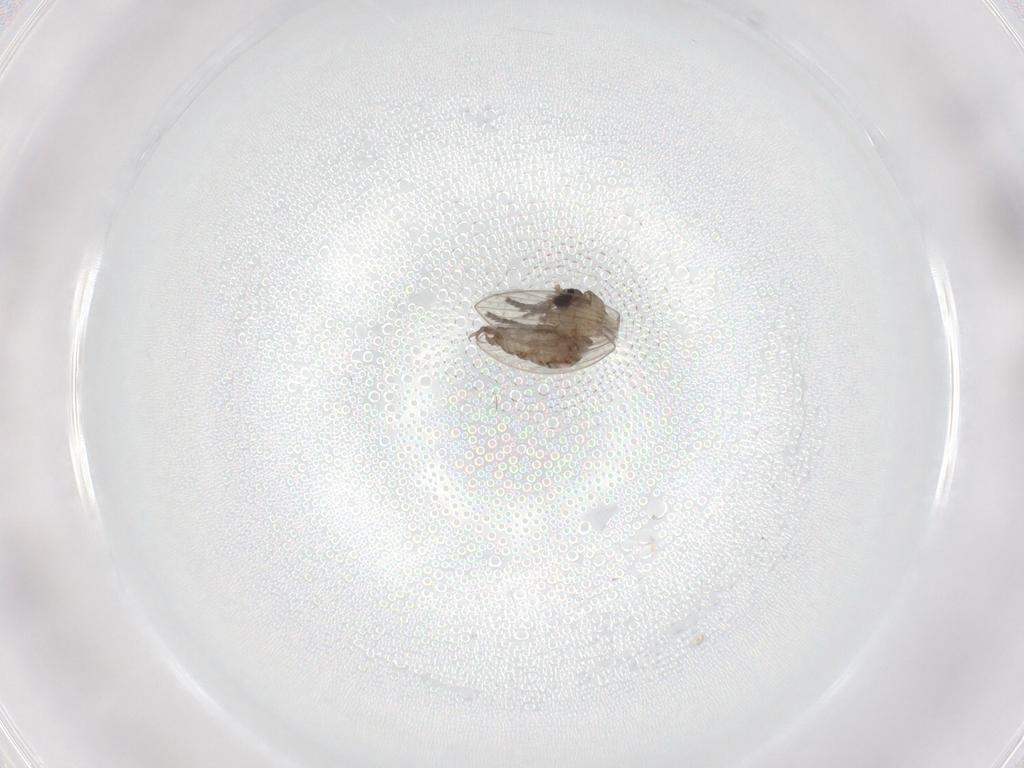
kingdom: Animalia
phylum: Arthropoda
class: Insecta
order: Diptera
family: Psychodidae
